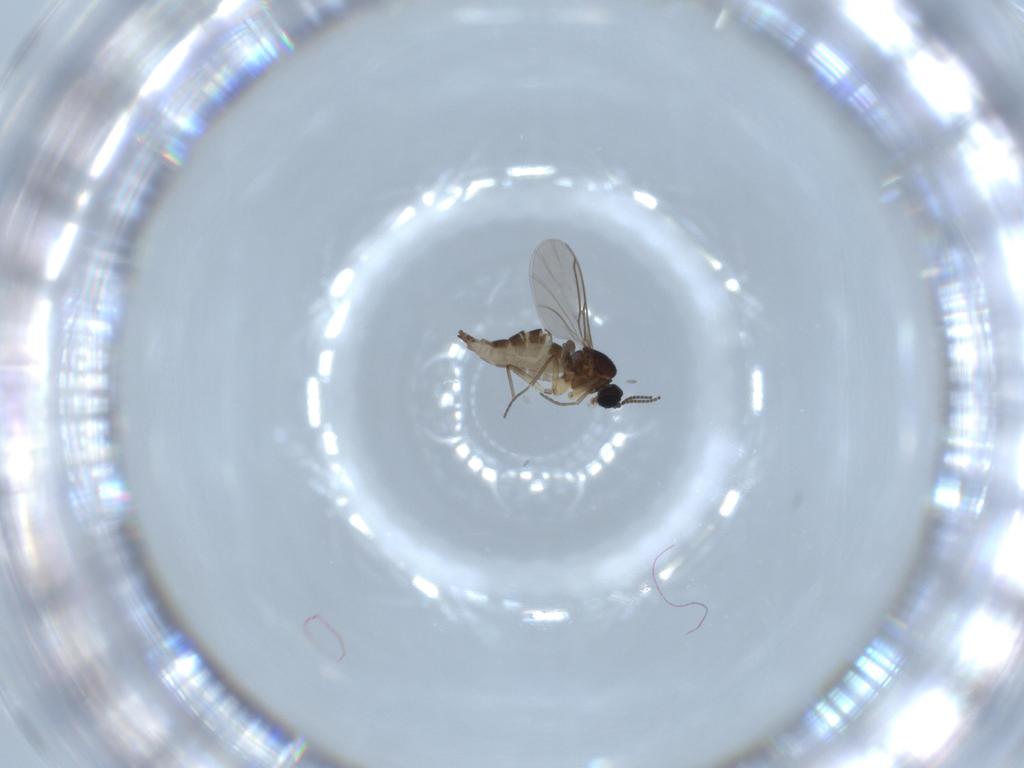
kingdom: Animalia
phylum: Arthropoda
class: Insecta
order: Diptera
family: Sciaridae
